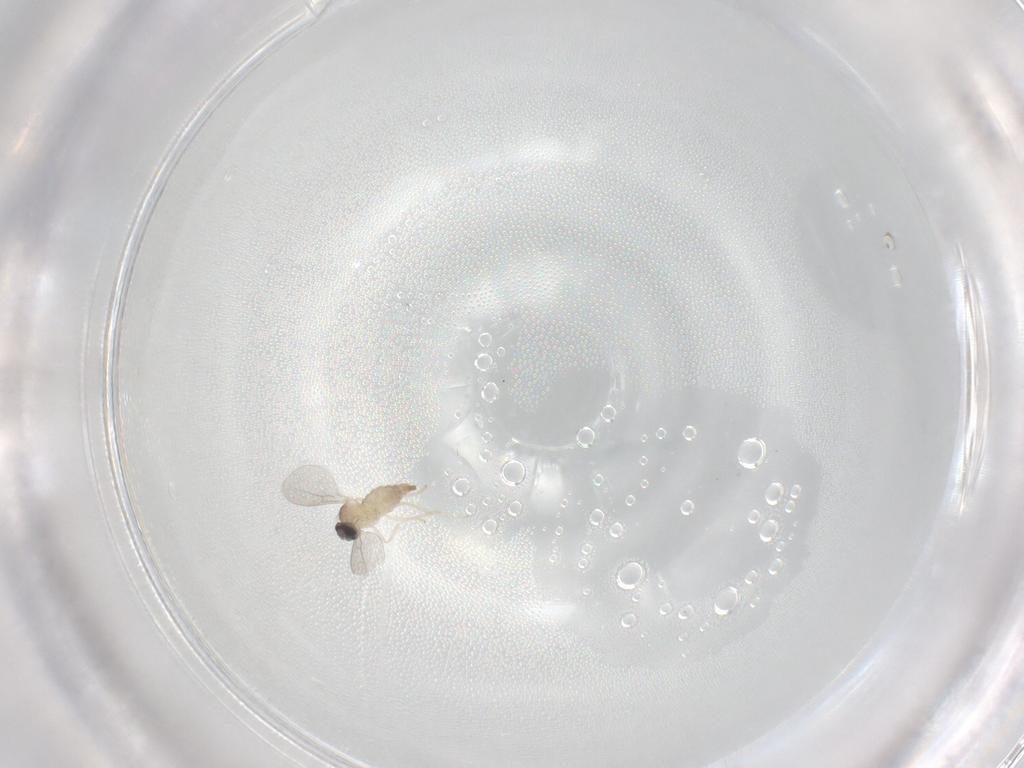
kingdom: Animalia
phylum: Arthropoda
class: Insecta
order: Diptera
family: Cecidomyiidae
